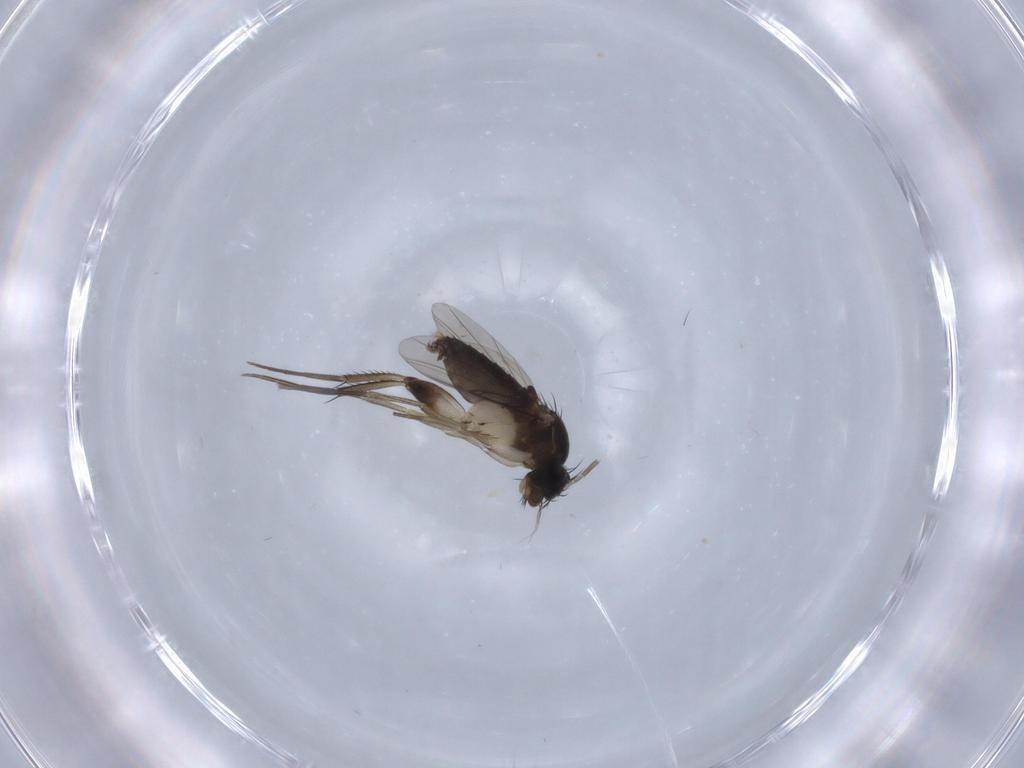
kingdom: Animalia
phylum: Arthropoda
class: Insecta
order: Diptera
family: Phoridae
